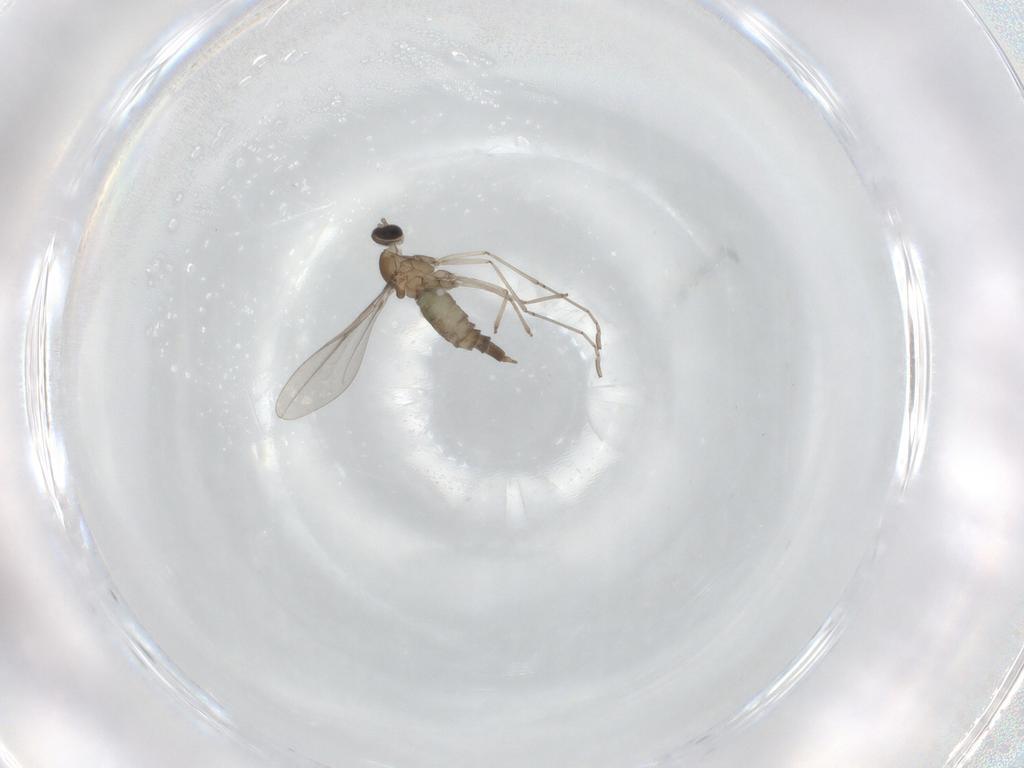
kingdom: Animalia
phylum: Arthropoda
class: Insecta
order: Diptera
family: Cecidomyiidae
